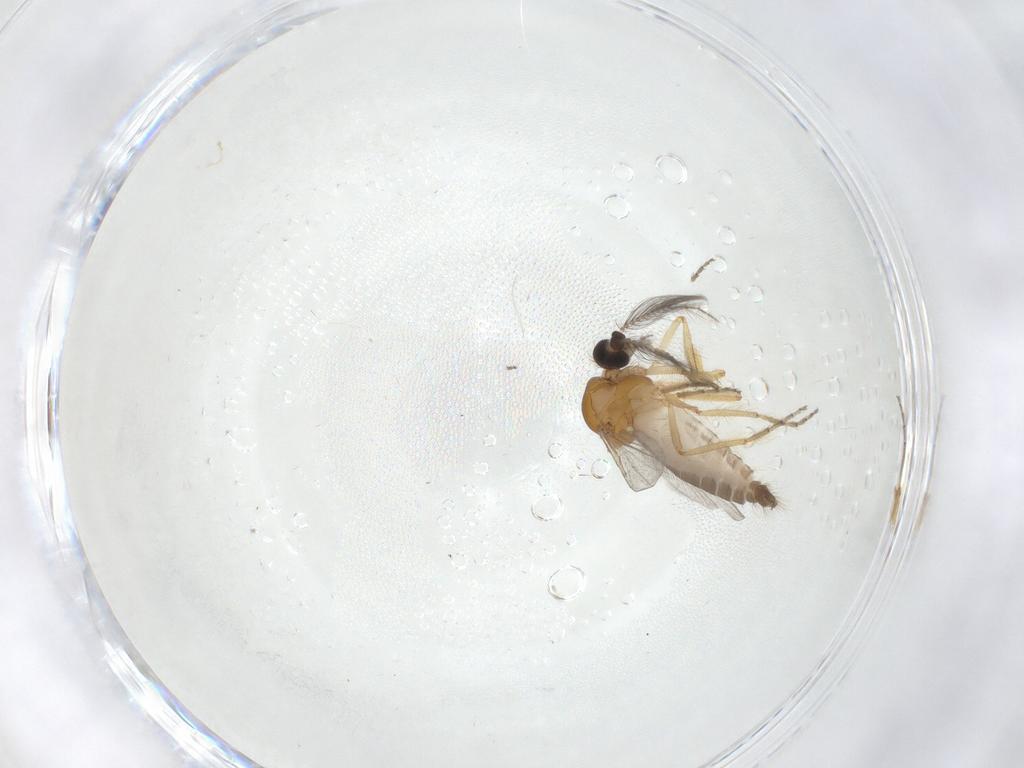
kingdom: Animalia
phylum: Arthropoda
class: Insecta
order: Diptera
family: Ceratopogonidae
